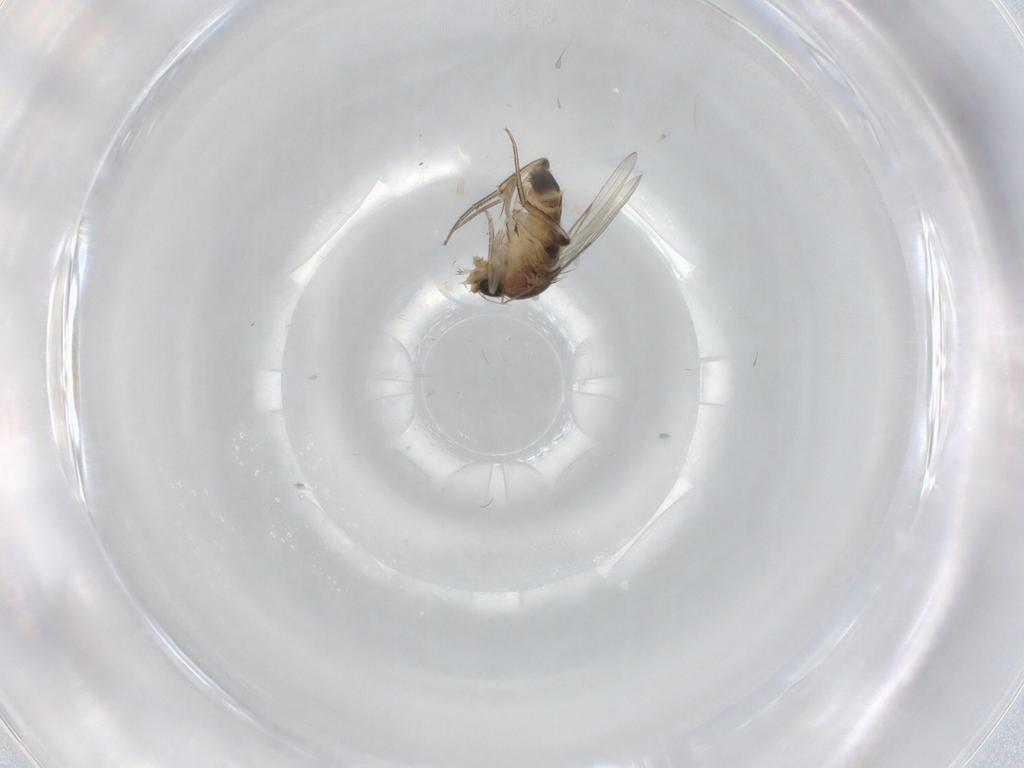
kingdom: Animalia
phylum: Arthropoda
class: Insecta
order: Diptera
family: Chironomidae
